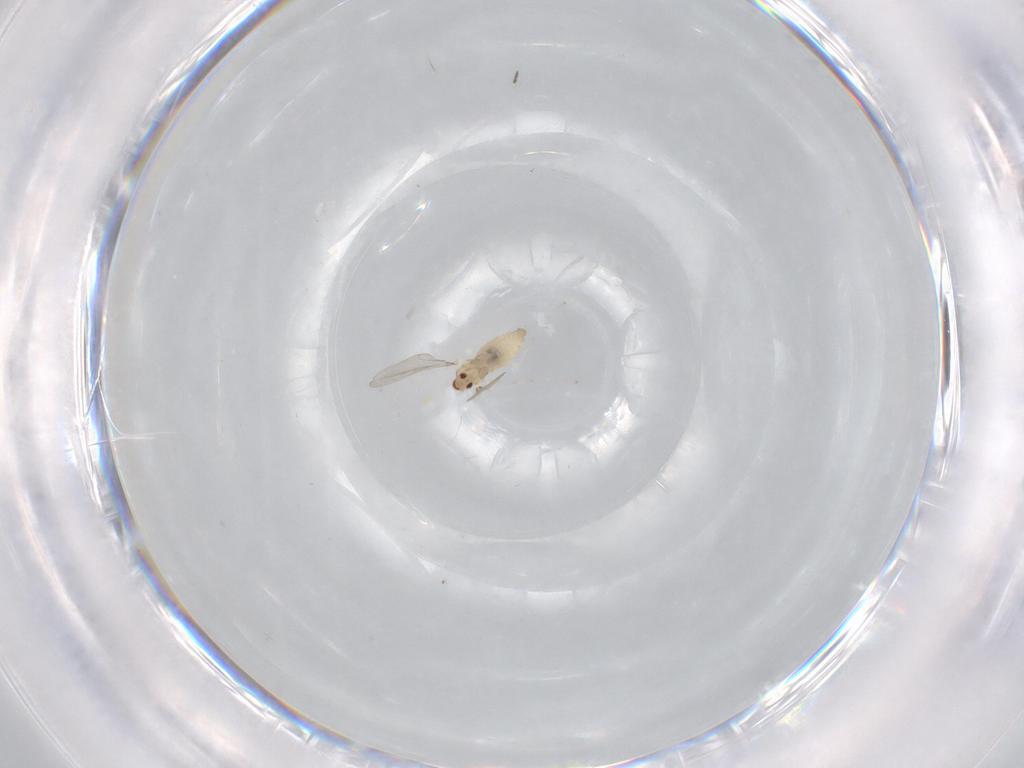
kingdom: Animalia
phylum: Arthropoda
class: Insecta
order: Diptera
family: Cecidomyiidae
